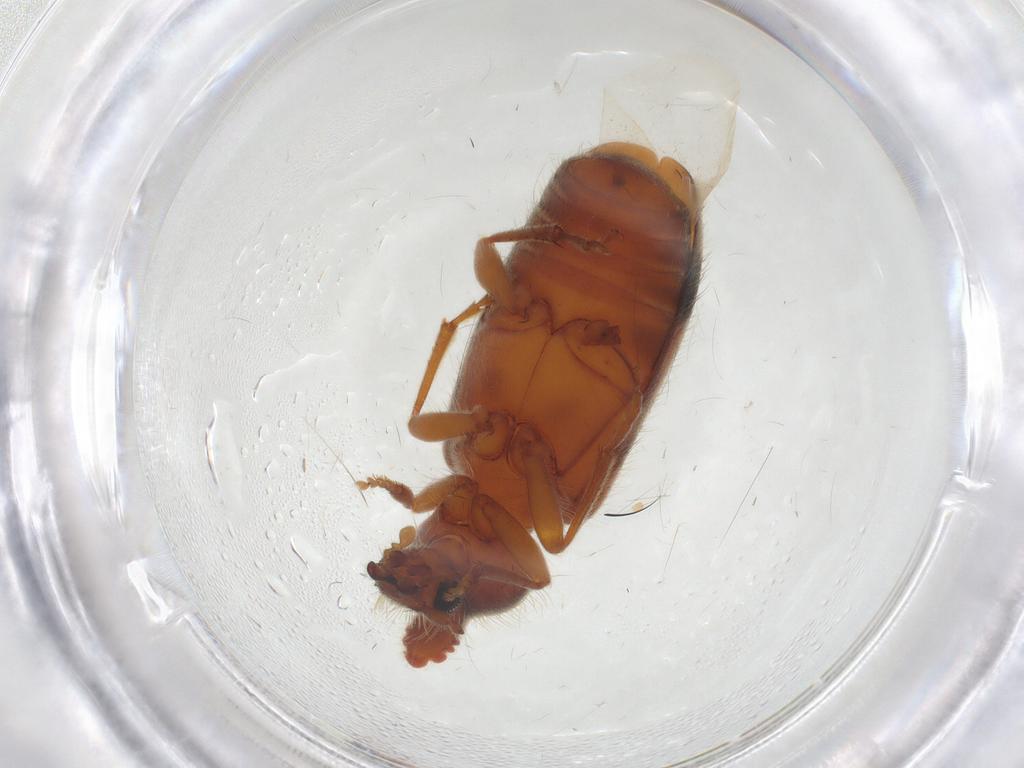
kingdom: Animalia
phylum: Arthropoda
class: Insecta
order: Coleoptera
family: Anthicidae
